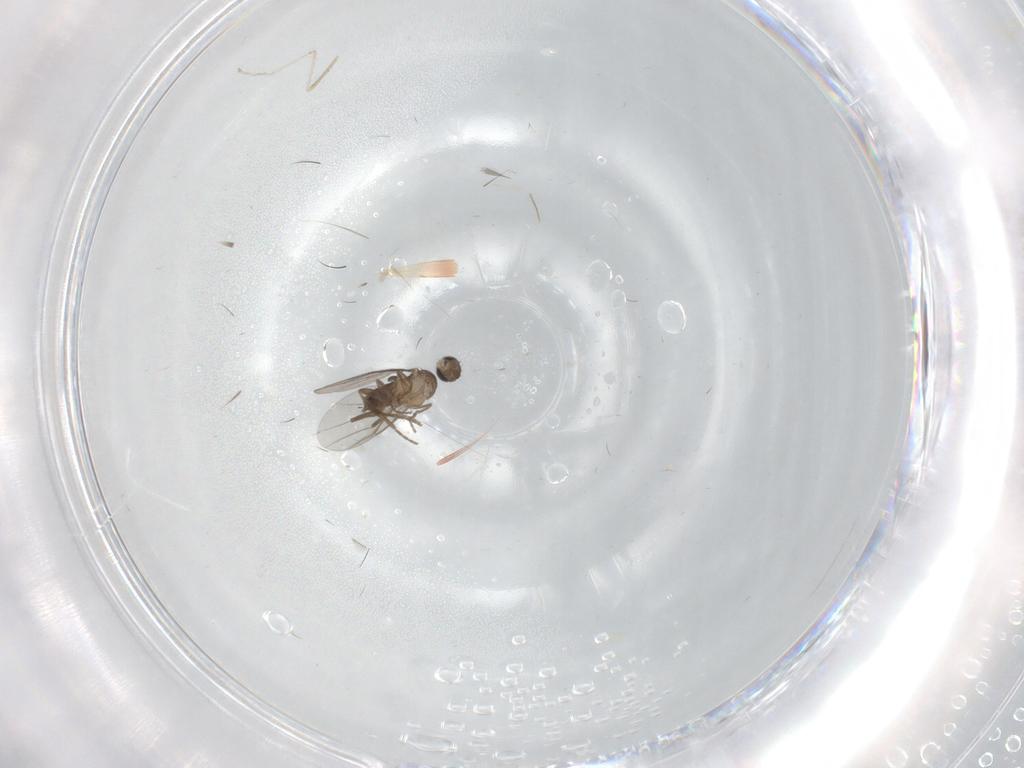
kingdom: Animalia
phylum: Arthropoda
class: Insecta
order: Diptera
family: Phoridae
